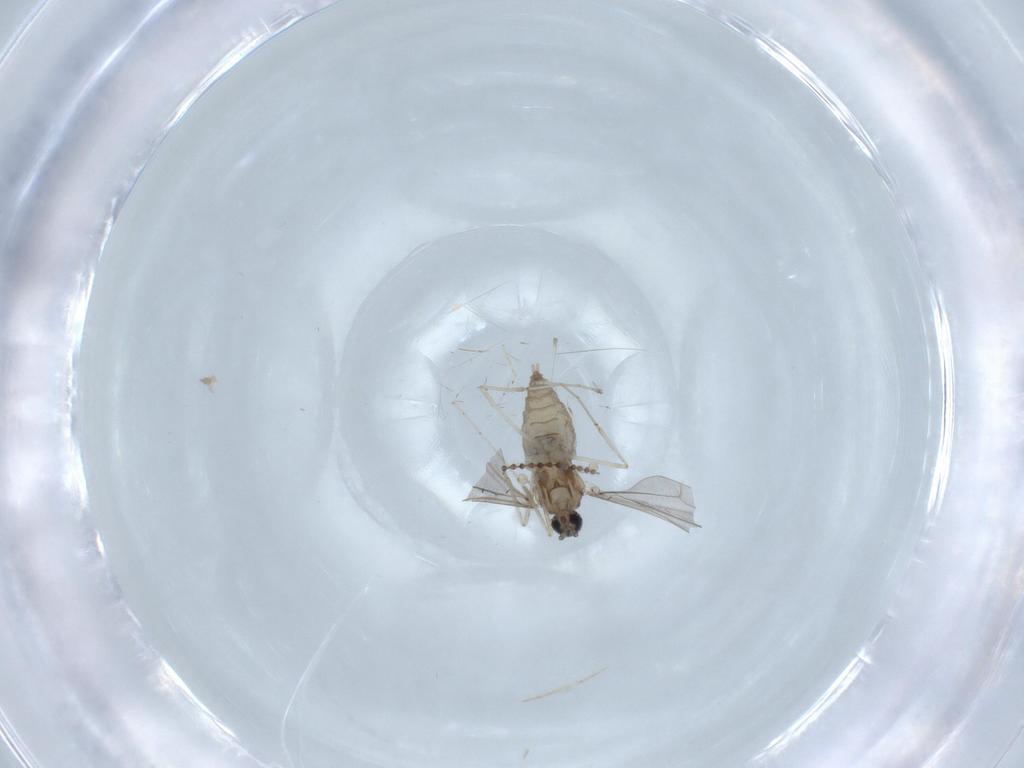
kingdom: Animalia
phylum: Arthropoda
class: Insecta
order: Diptera
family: Cecidomyiidae
